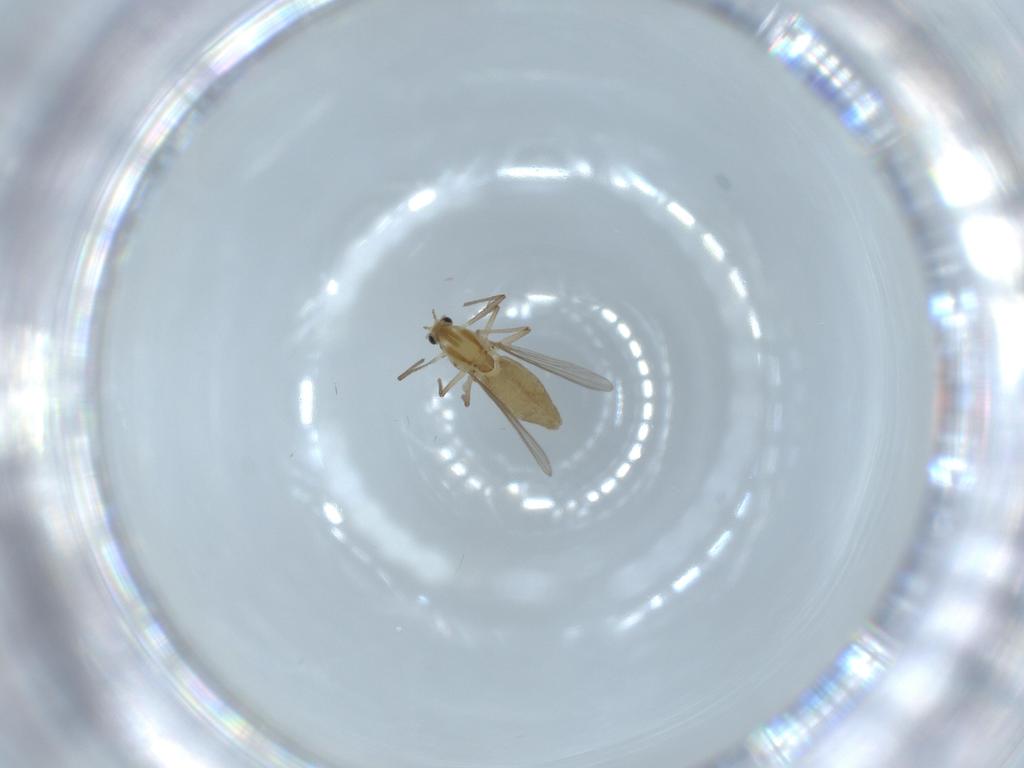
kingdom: Animalia
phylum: Arthropoda
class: Insecta
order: Diptera
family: Chironomidae
